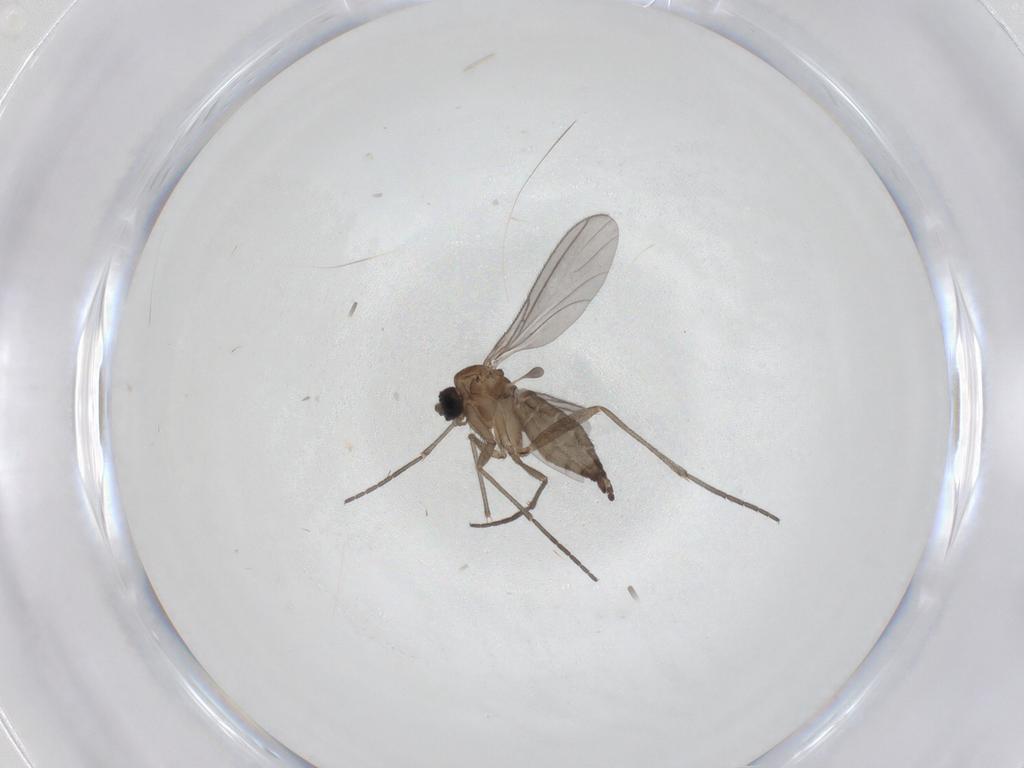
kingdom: Animalia
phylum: Arthropoda
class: Insecta
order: Diptera
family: Sciaridae
